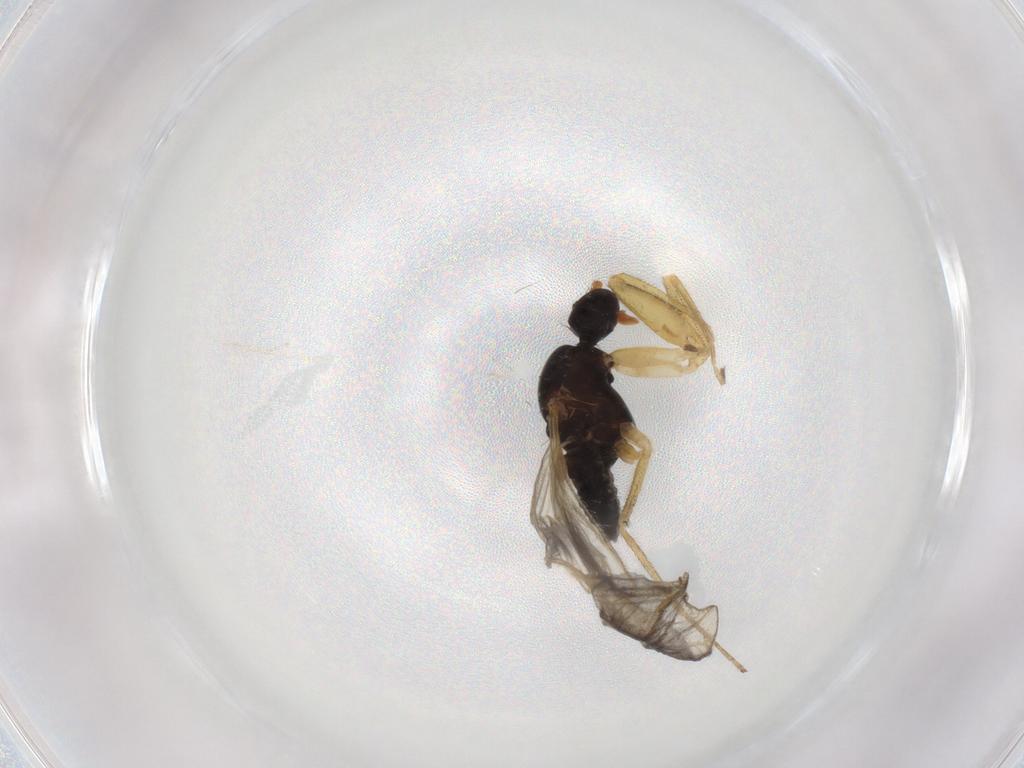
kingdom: Animalia
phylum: Arthropoda
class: Insecta
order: Diptera
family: Empididae
